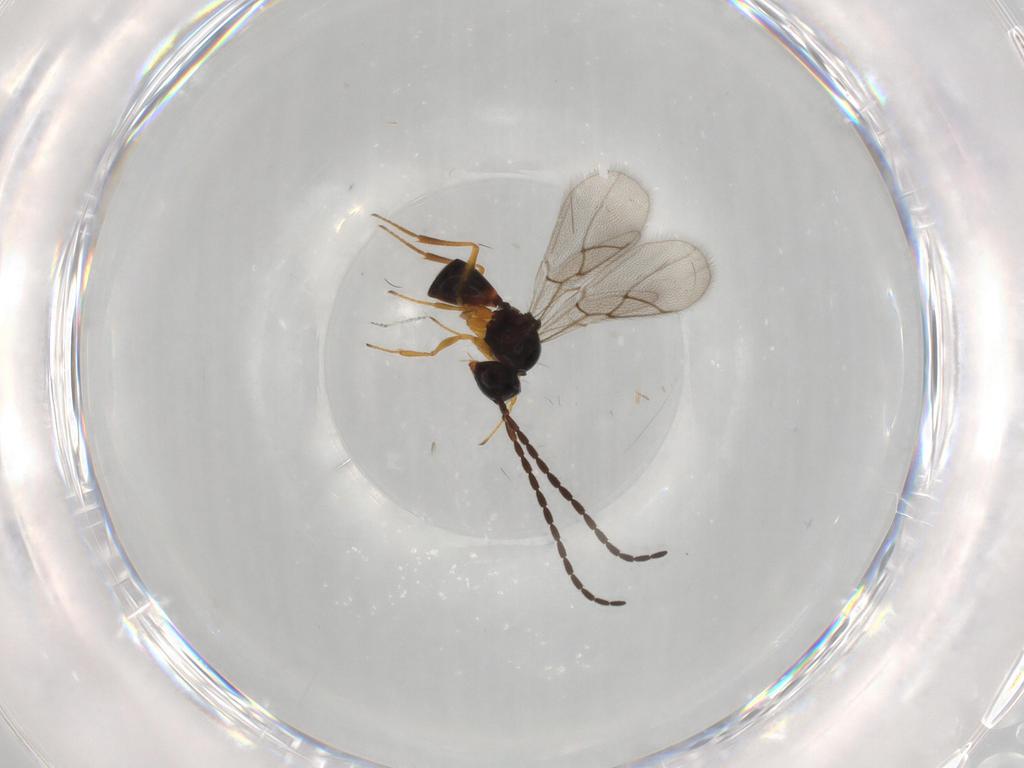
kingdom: Animalia
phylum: Arthropoda
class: Insecta
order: Hymenoptera
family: Figitidae
